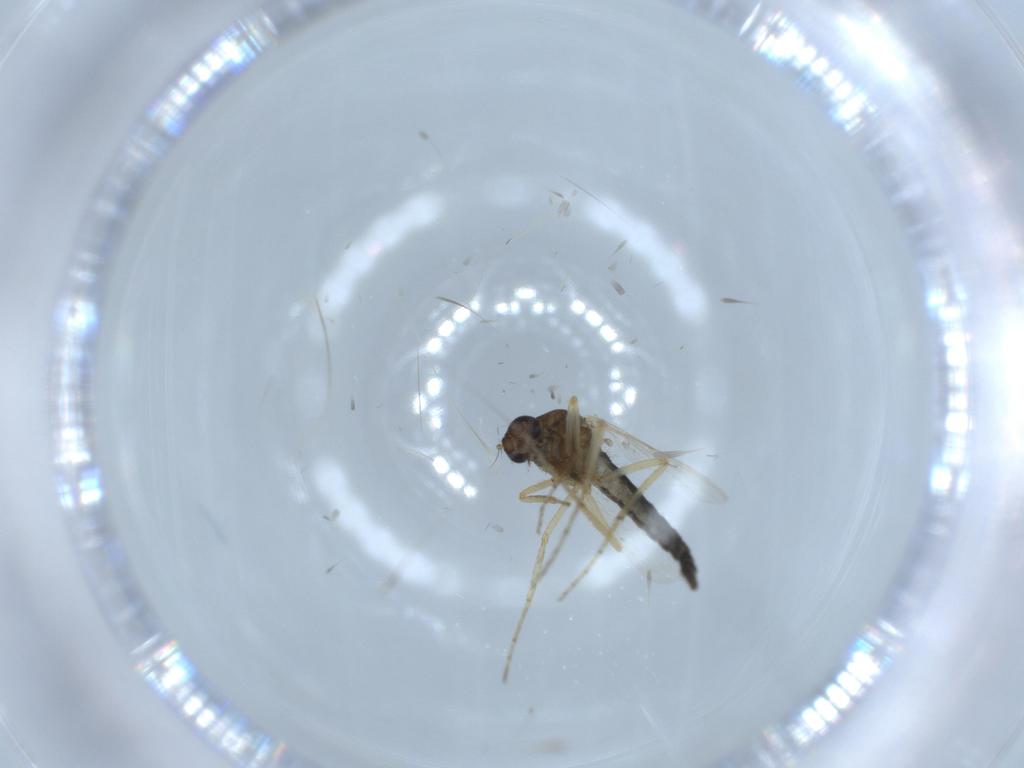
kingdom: Animalia
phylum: Arthropoda
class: Insecta
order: Diptera
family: Ceratopogonidae
